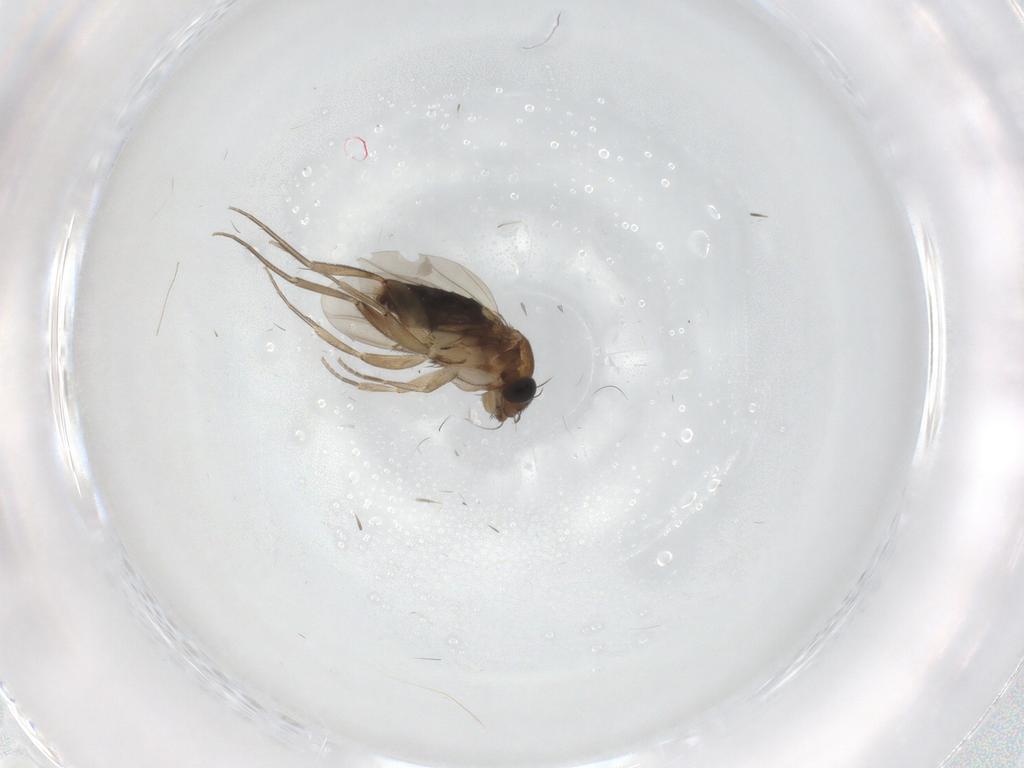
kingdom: Animalia
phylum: Arthropoda
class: Insecta
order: Diptera
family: Phoridae
